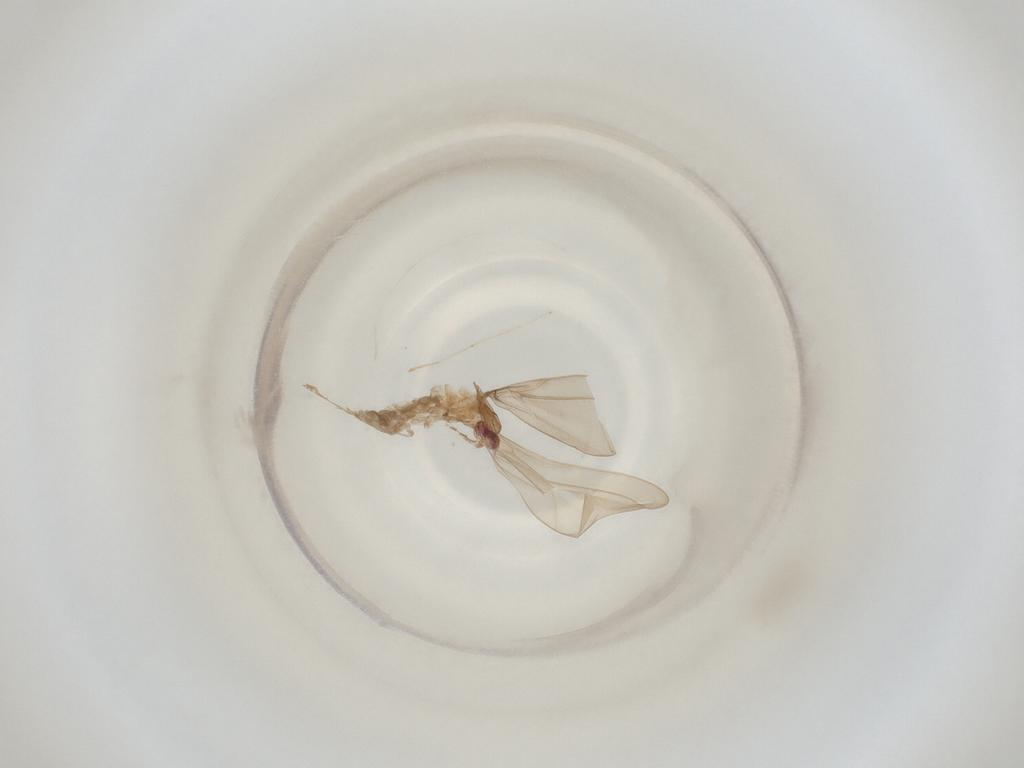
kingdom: Animalia
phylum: Arthropoda
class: Insecta
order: Diptera
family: Cecidomyiidae
